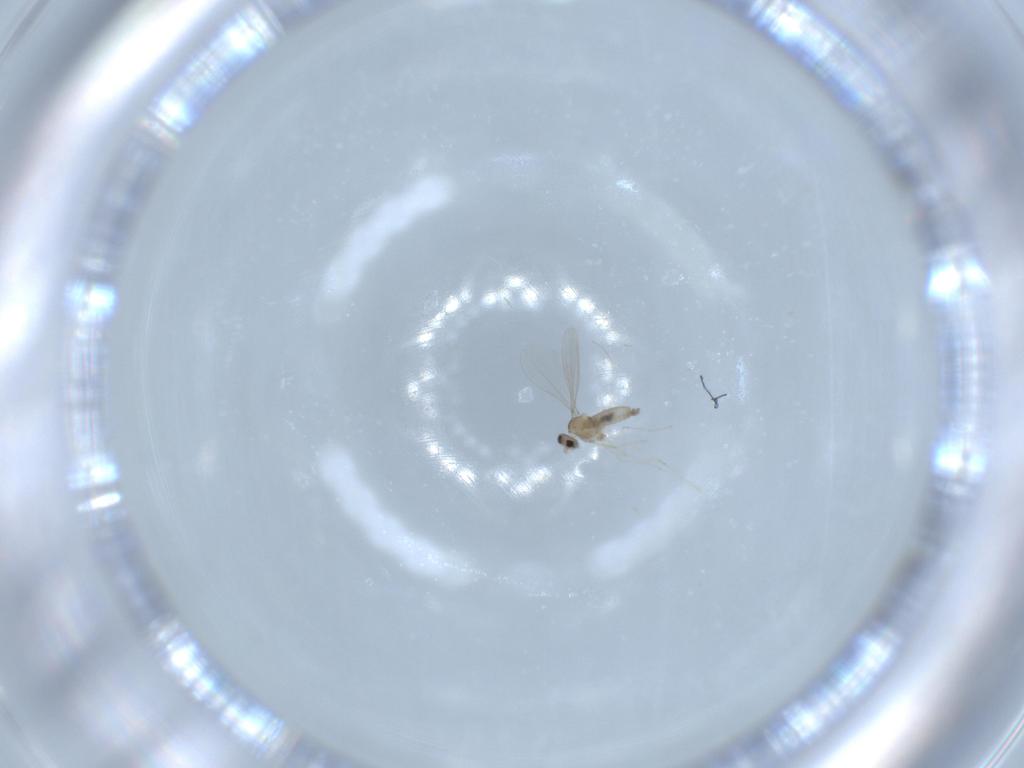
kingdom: Animalia
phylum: Arthropoda
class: Insecta
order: Diptera
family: Cecidomyiidae
